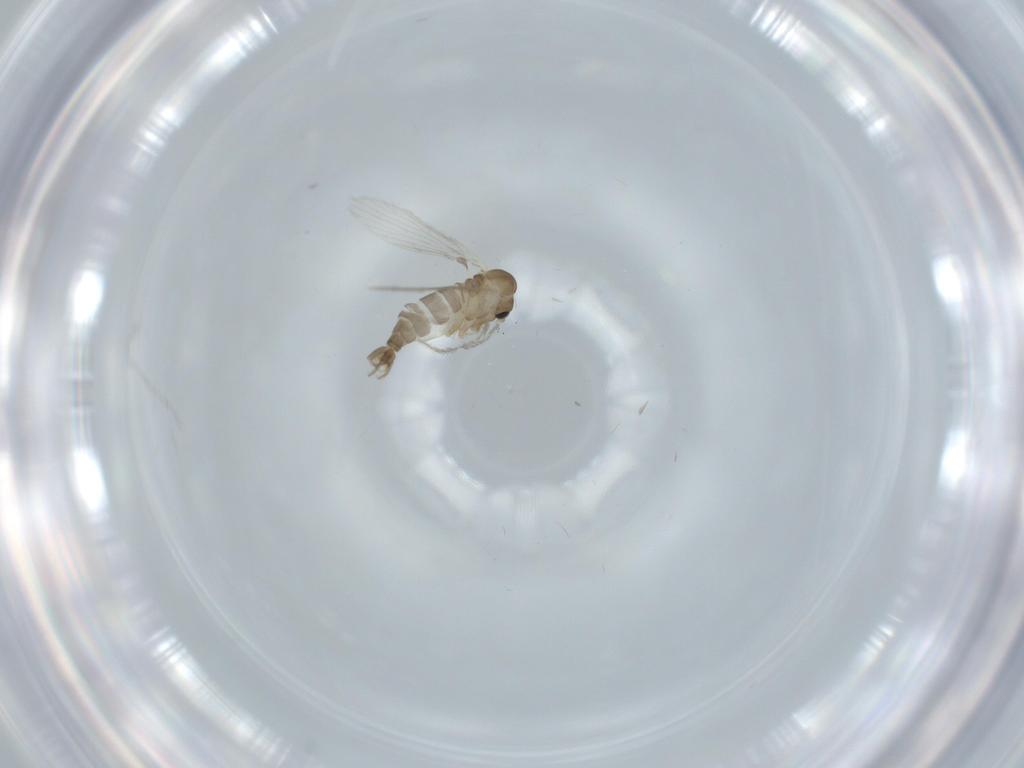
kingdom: Animalia
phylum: Arthropoda
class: Insecta
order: Diptera
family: Psychodidae
